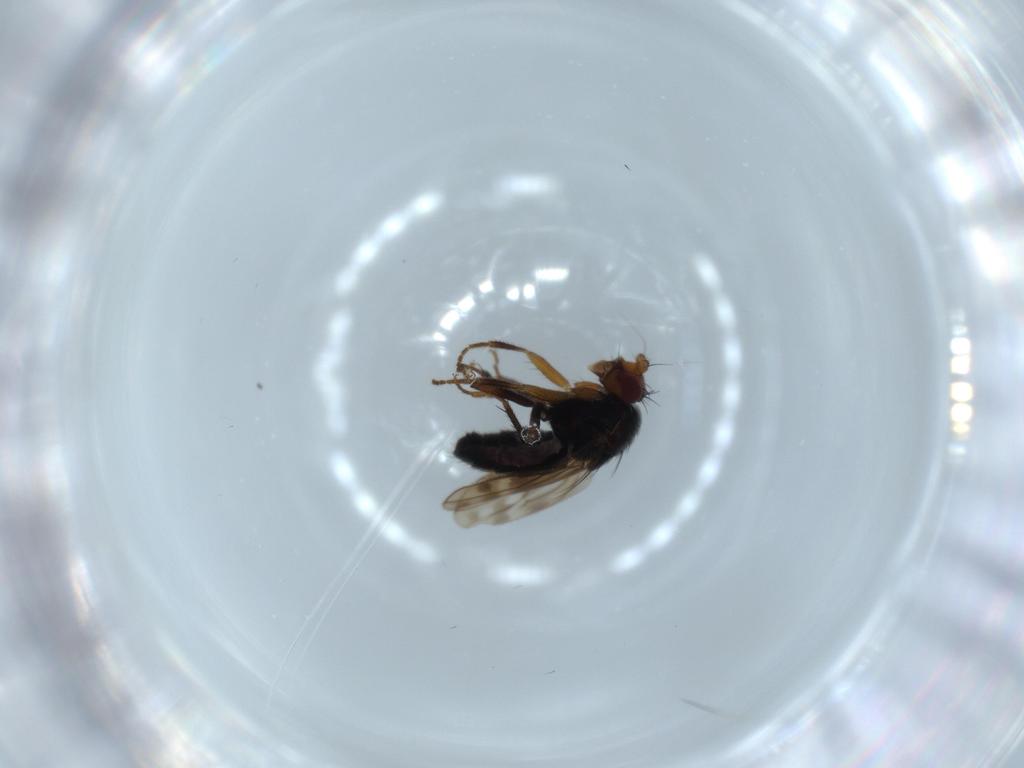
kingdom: Animalia
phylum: Arthropoda
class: Insecta
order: Diptera
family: Sphaeroceridae
